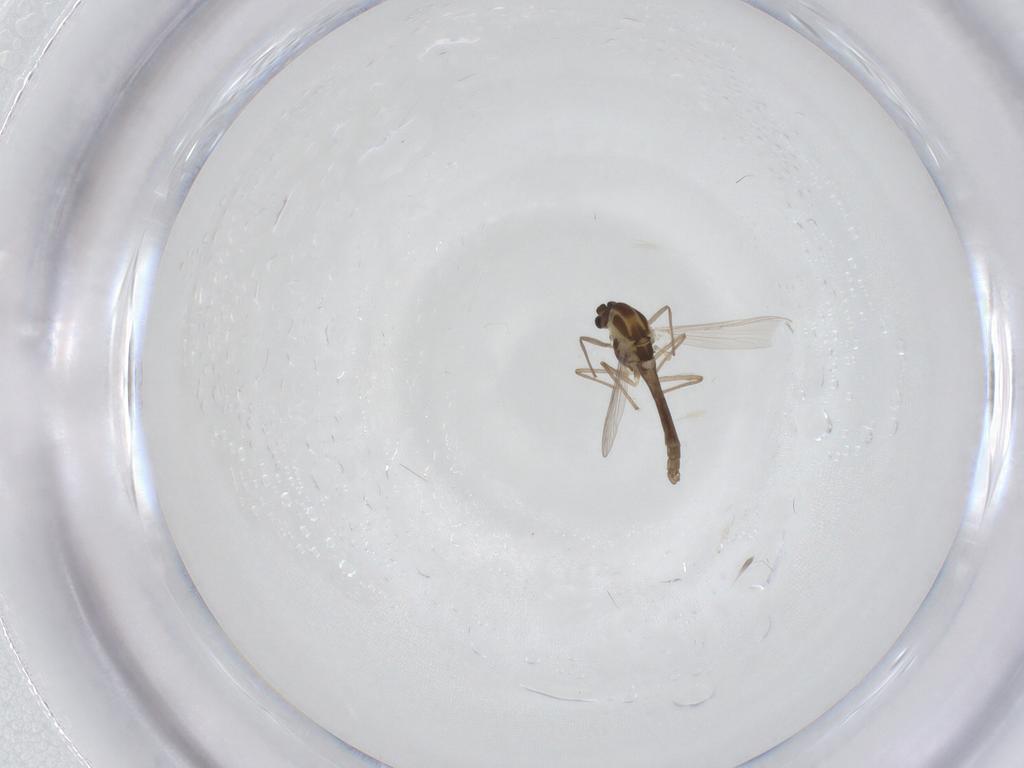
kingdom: Animalia
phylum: Arthropoda
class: Insecta
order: Diptera
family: Chironomidae
